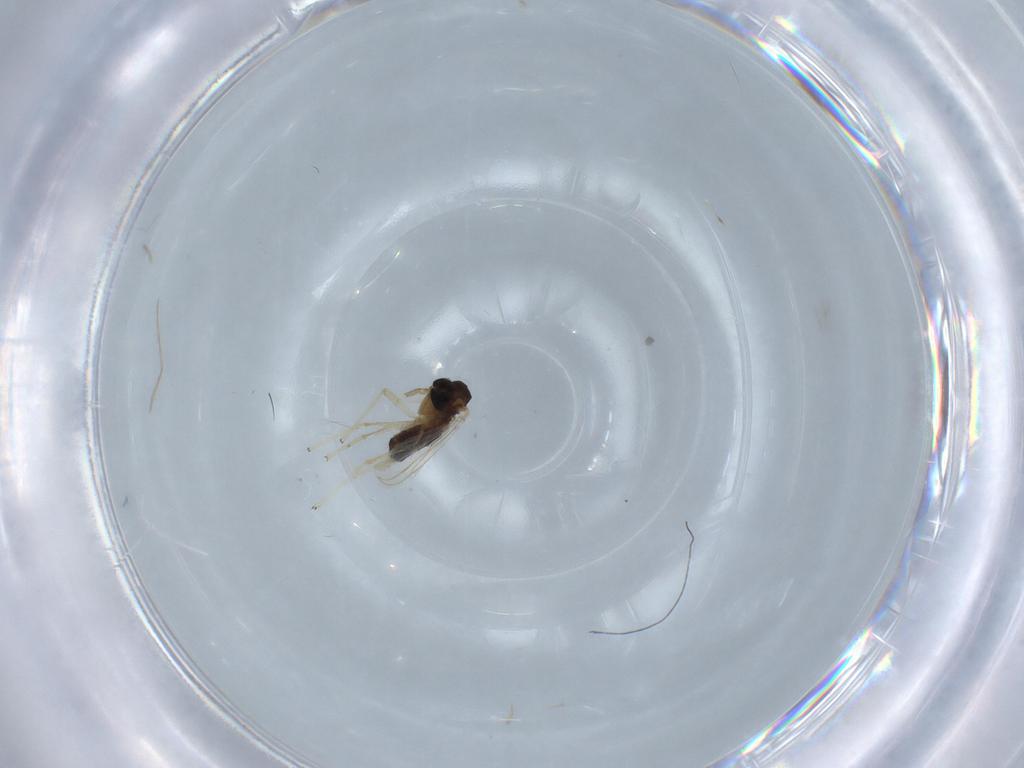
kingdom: Animalia
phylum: Arthropoda
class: Insecta
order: Diptera
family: Chironomidae
